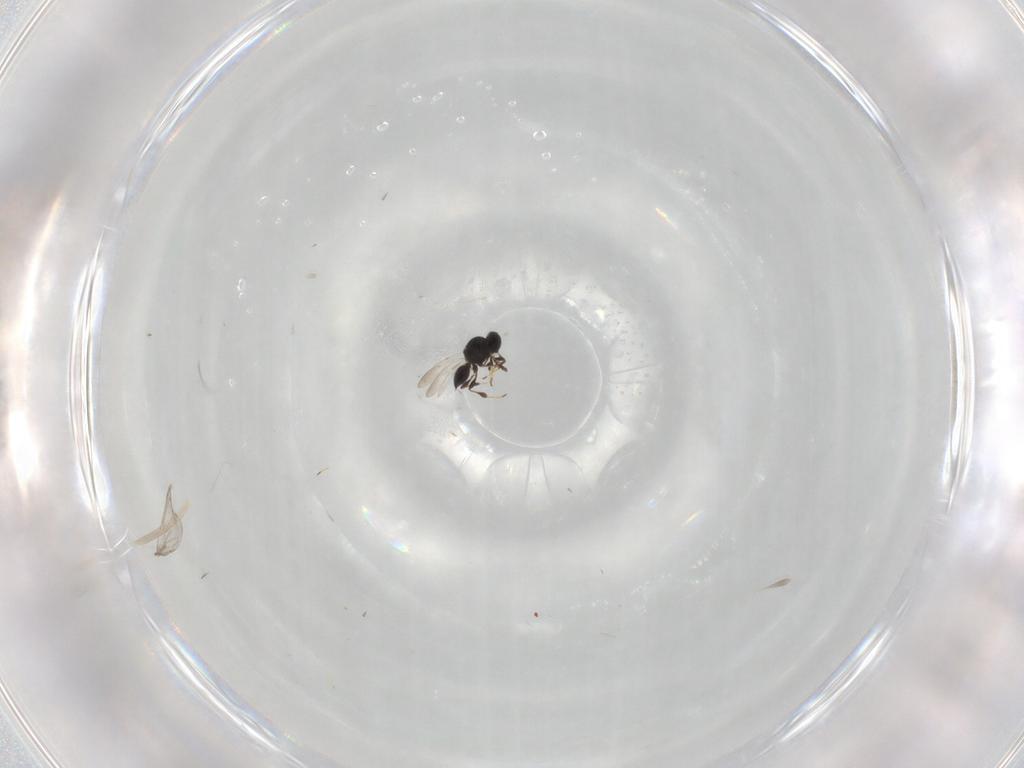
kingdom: Animalia
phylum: Arthropoda
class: Insecta
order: Hymenoptera
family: Platygastridae
